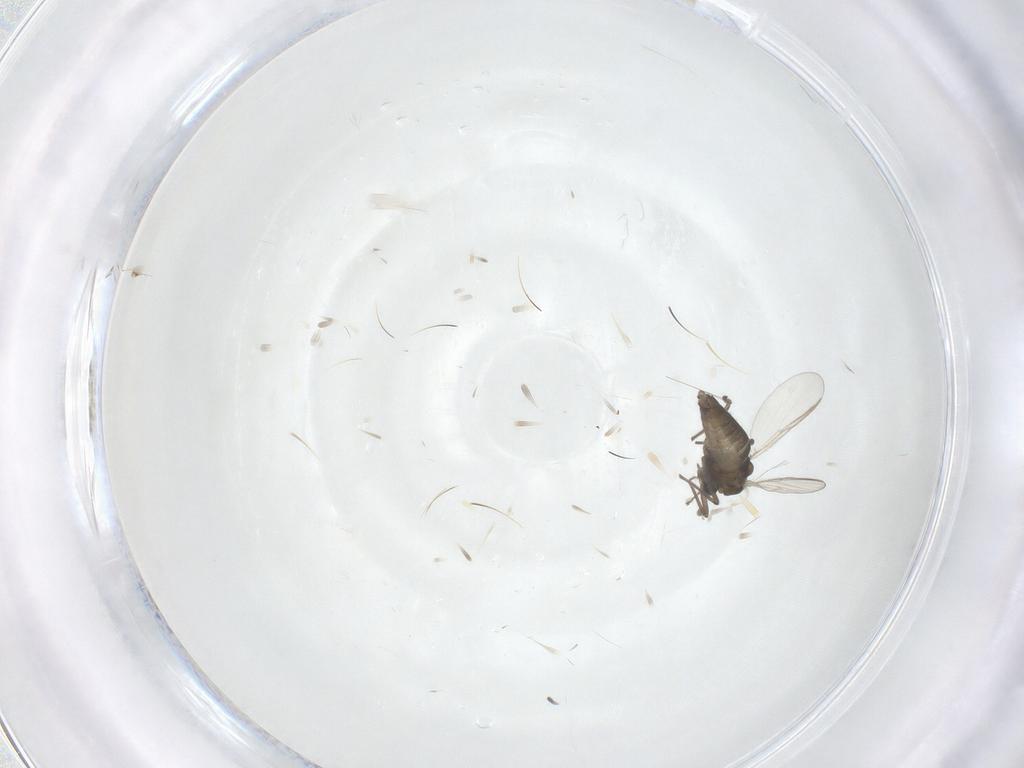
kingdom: Animalia
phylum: Arthropoda
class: Insecta
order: Diptera
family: Chironomidae
